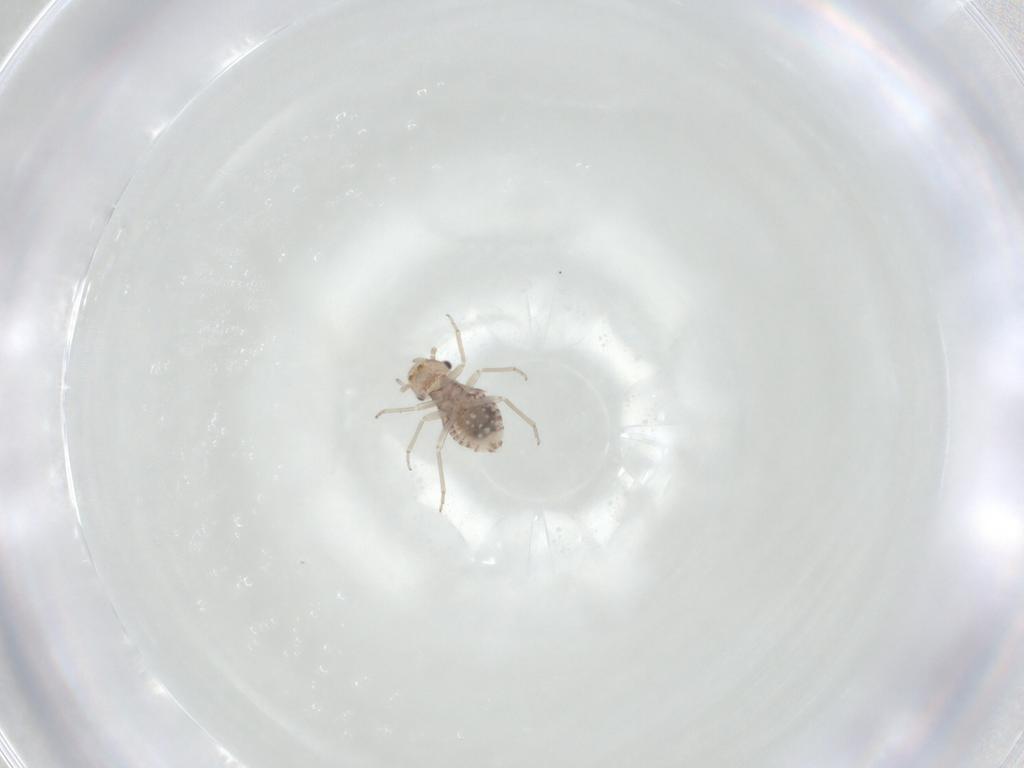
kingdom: Animalia
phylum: Arthropoda
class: Insecta
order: Psocodea
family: Lachesillidae
